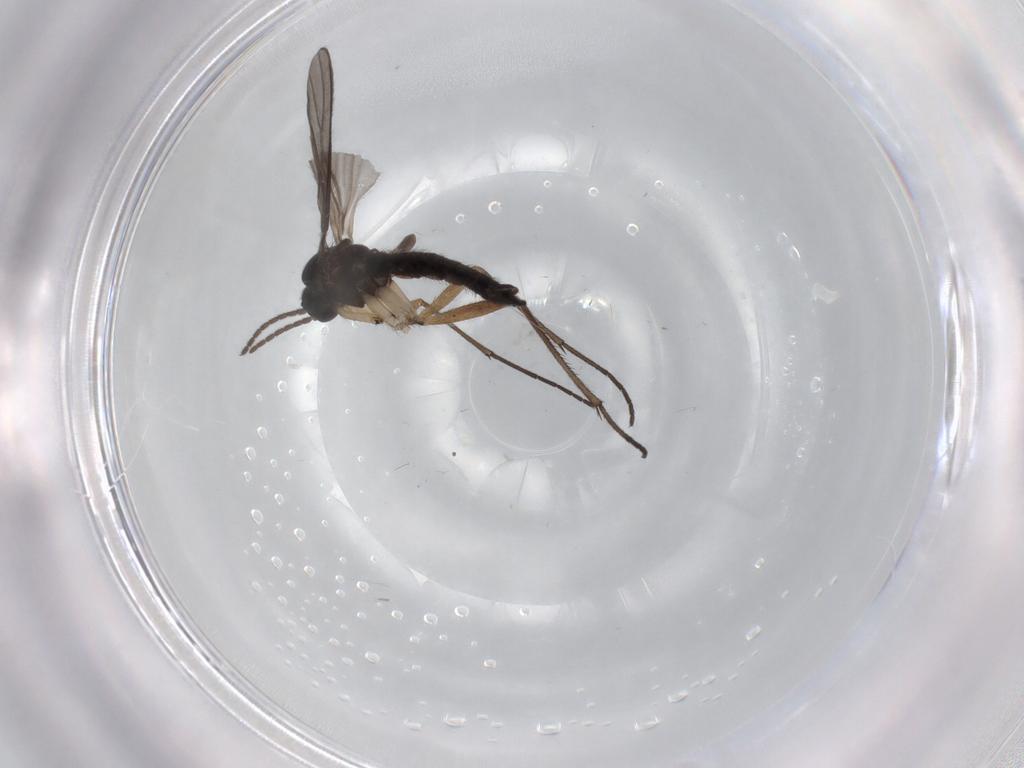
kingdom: Animalia
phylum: Arthropoda
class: Insecta
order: Diptera
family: Sciaridae
